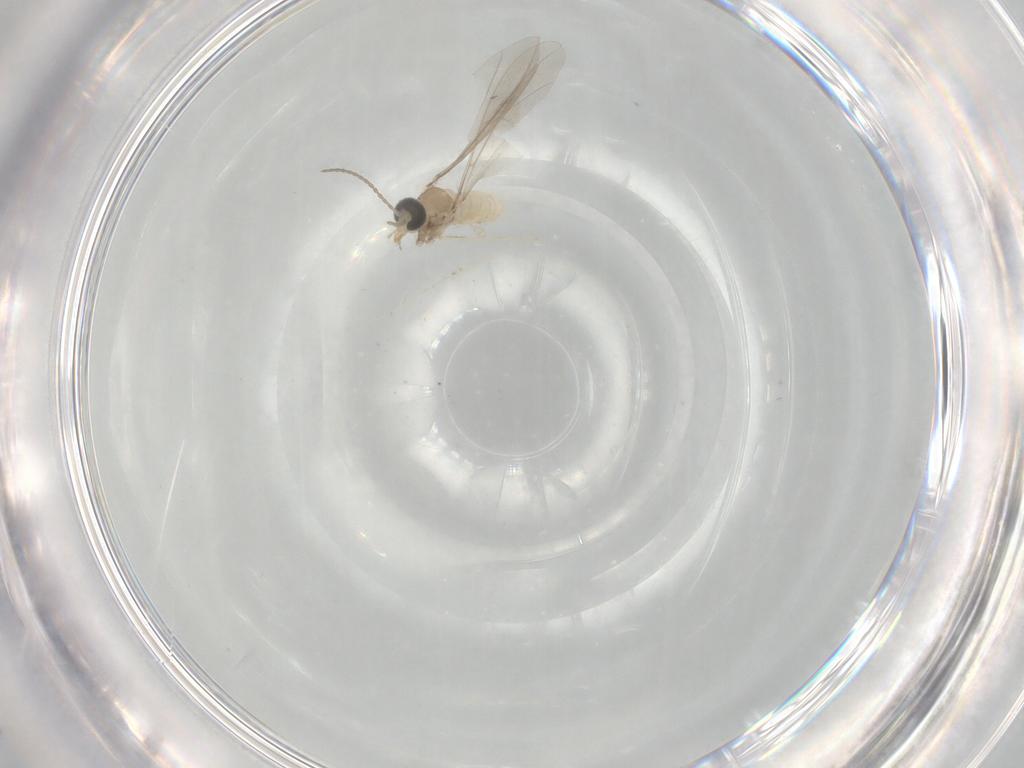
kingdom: Animalia
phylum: Arthropoda
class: Insecta
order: Diptera
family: Cecidomyiidae
